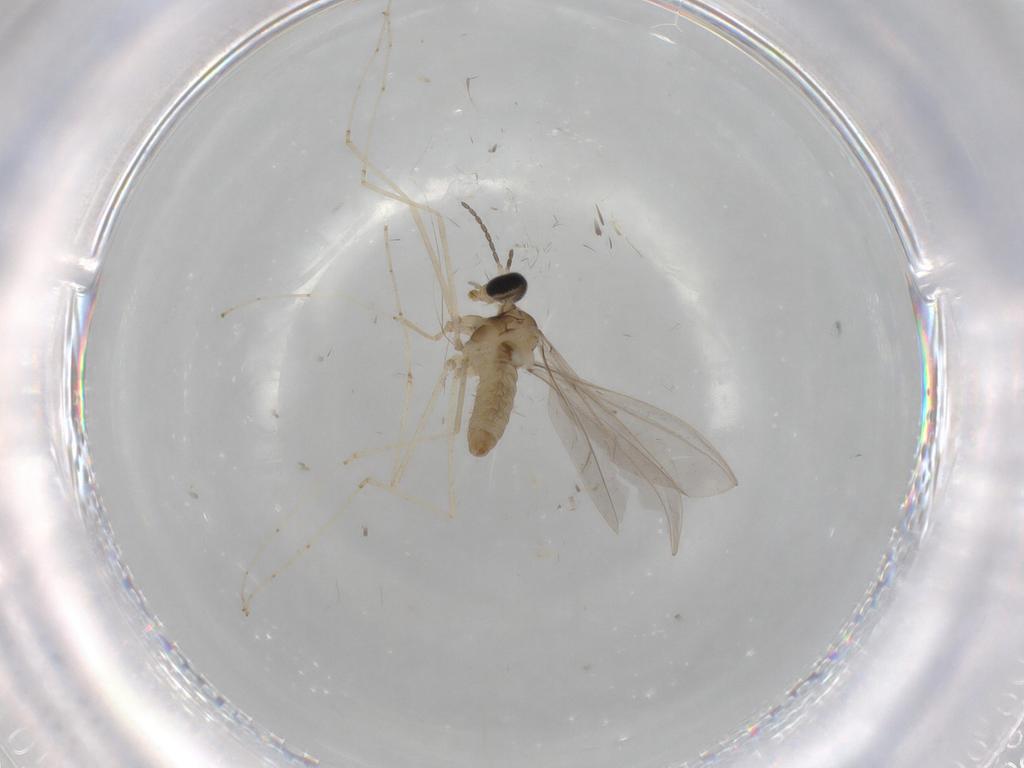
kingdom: Animalia
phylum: Arthropoda
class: Insecta
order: Diptera
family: Cecidomyiidae
